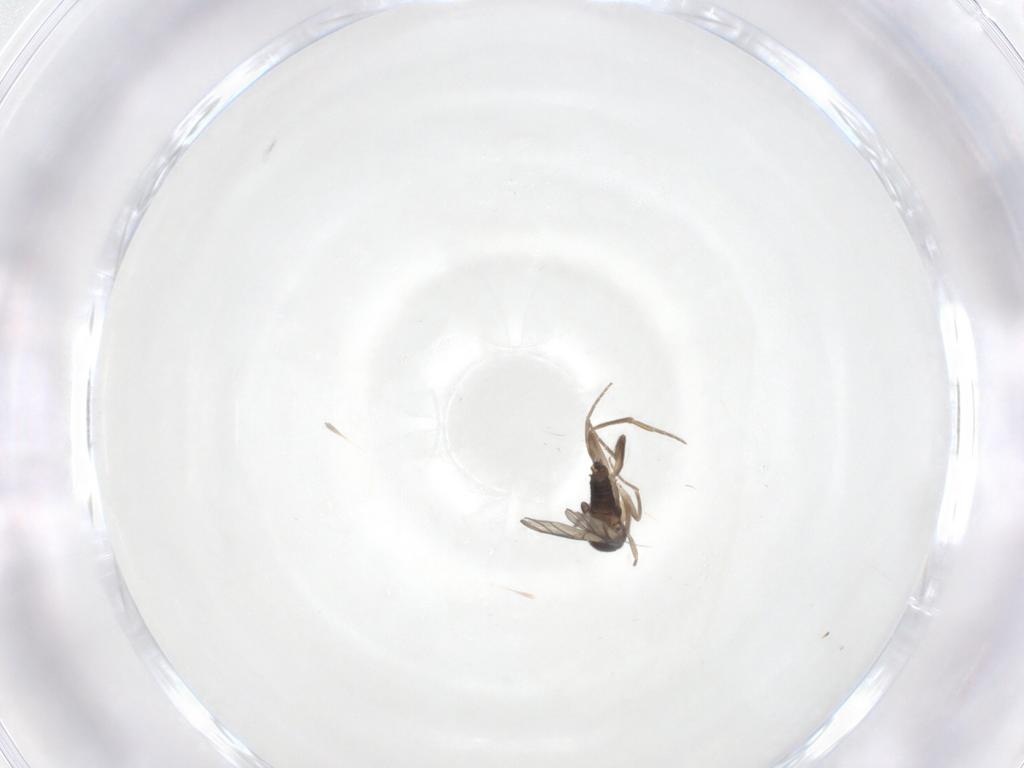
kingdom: Animalia
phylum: Arthropoda
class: Insecta
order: Diptera
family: Phoridae
